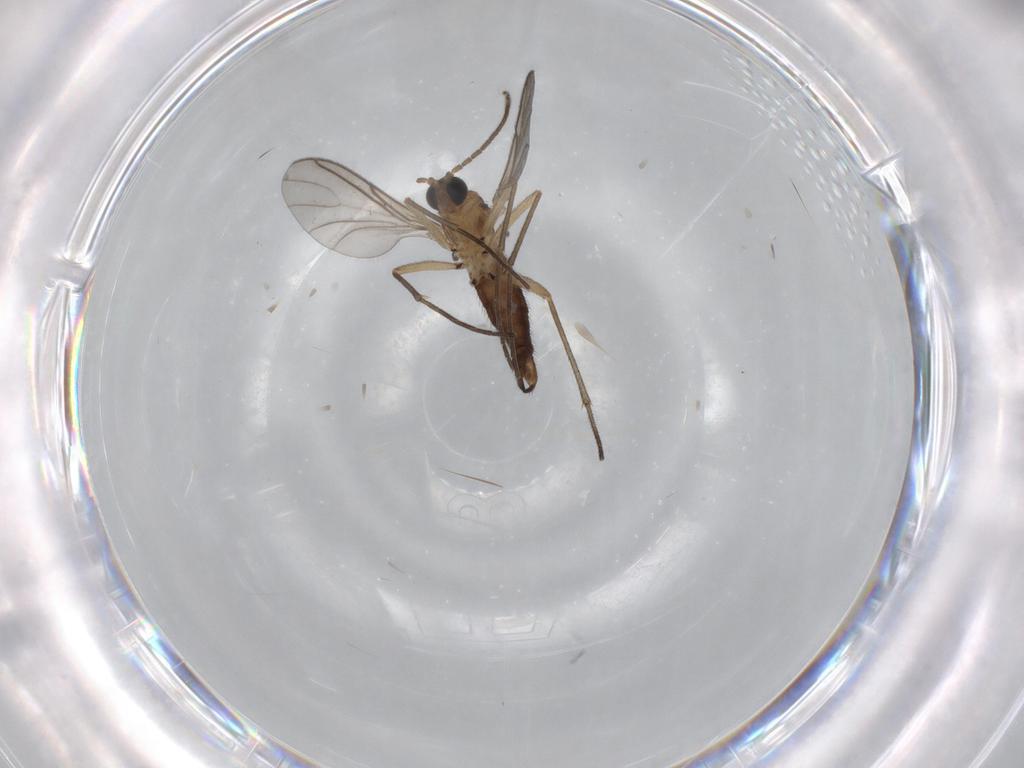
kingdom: Animalia
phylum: Arthropoda
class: Insecta
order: Diptera
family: Sciaridae
